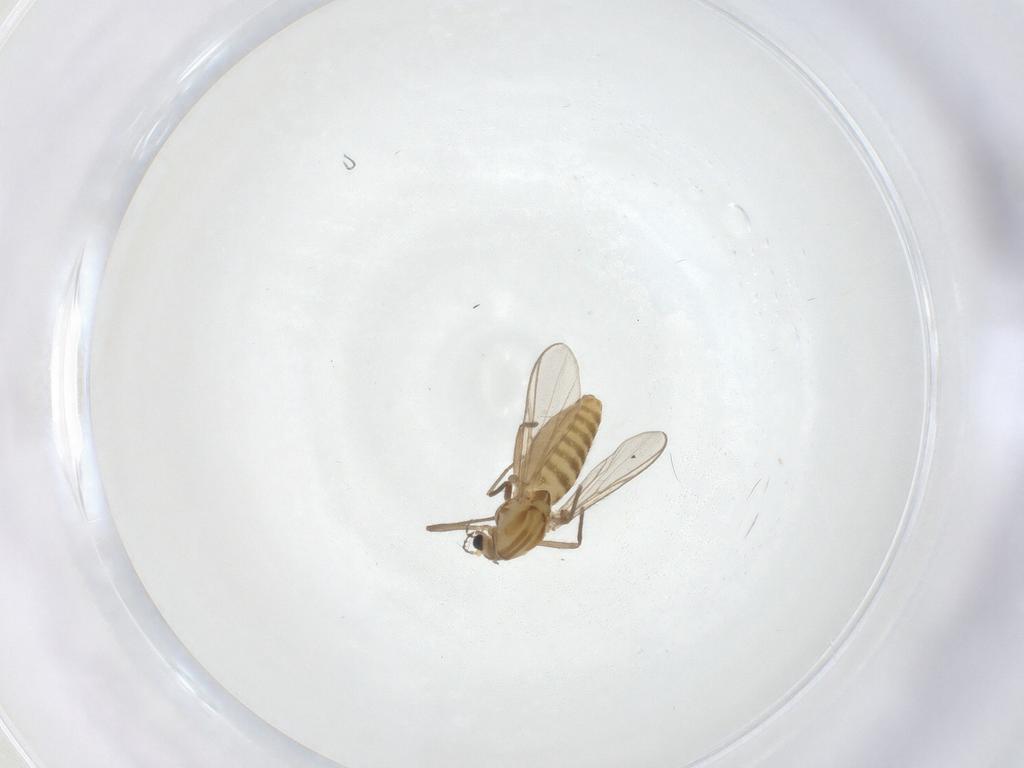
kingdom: Animalia
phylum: Arthropoda
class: Insecta
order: Diptera
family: Chironomidae
